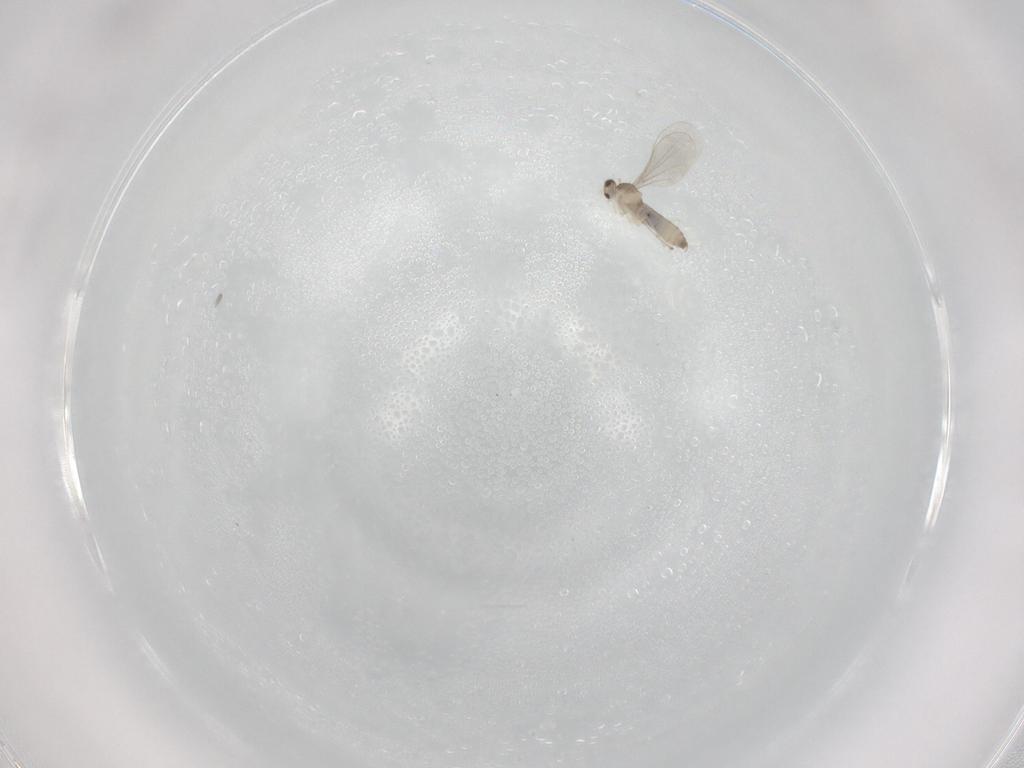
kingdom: Animalia
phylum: Arthropoda
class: Insecta
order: Diptera
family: Cecidomyiidae
